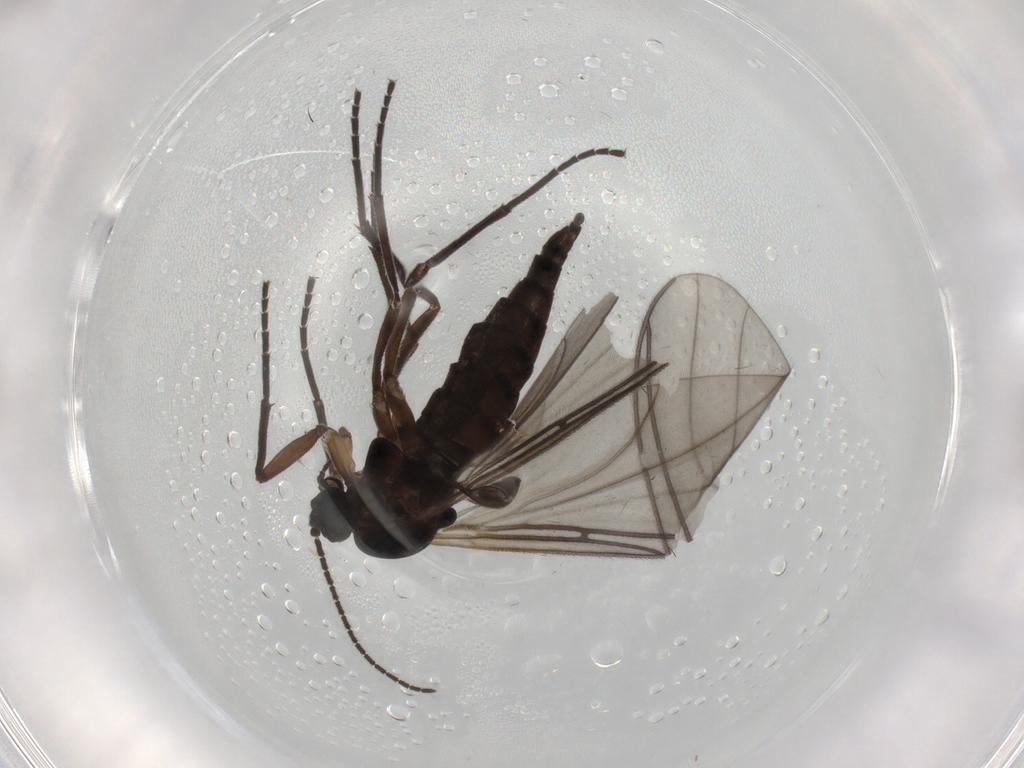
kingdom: Animalia
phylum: Arthropoda
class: Insecta
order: Diptera
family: Sciaridae
